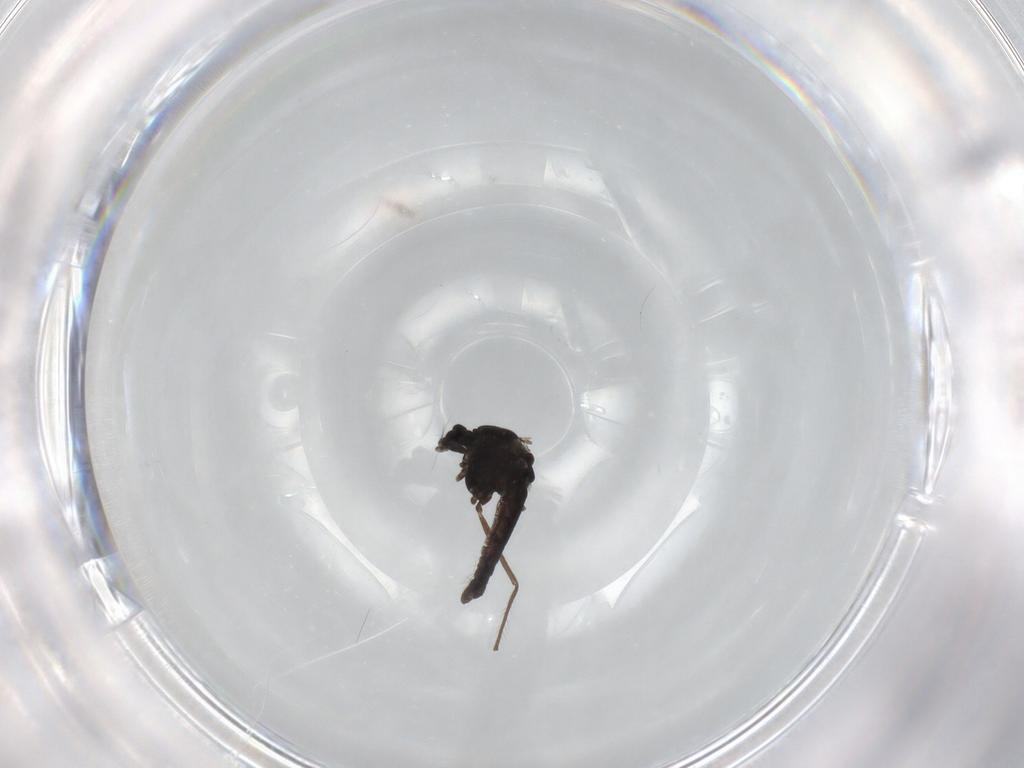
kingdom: Animalia
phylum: Arthropoda
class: Insecta
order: Diptera
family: Chironomidae
